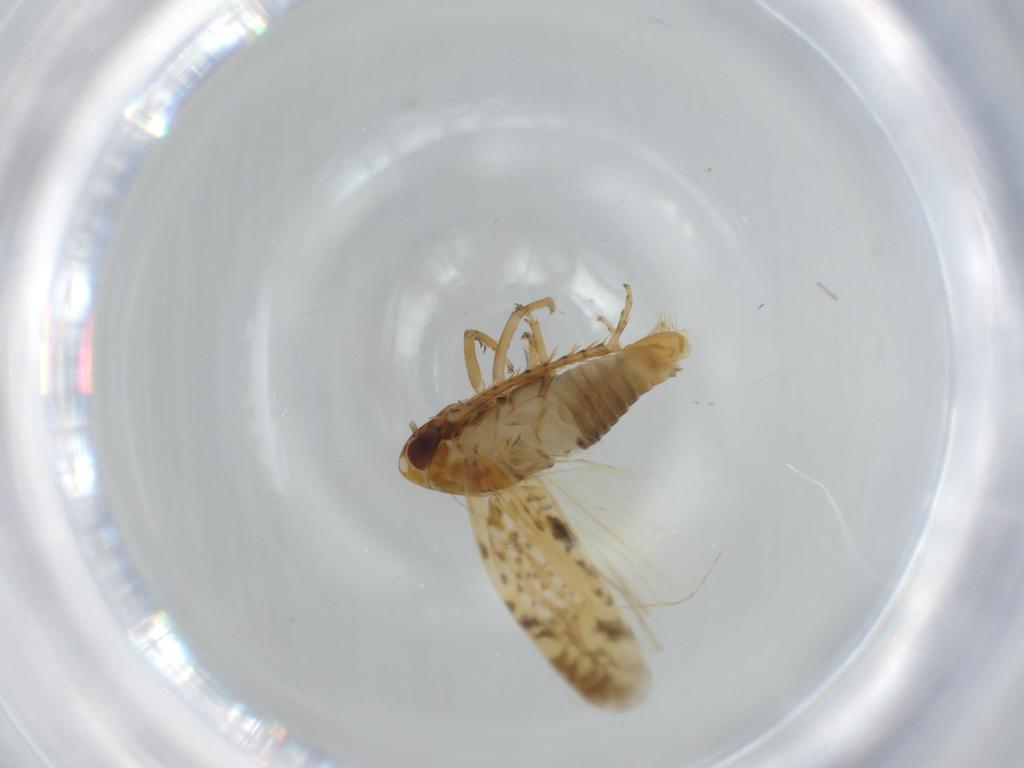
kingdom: Animalia
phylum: Arthropoda
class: Insecta
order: Hemiptera
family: Cicadellidae
